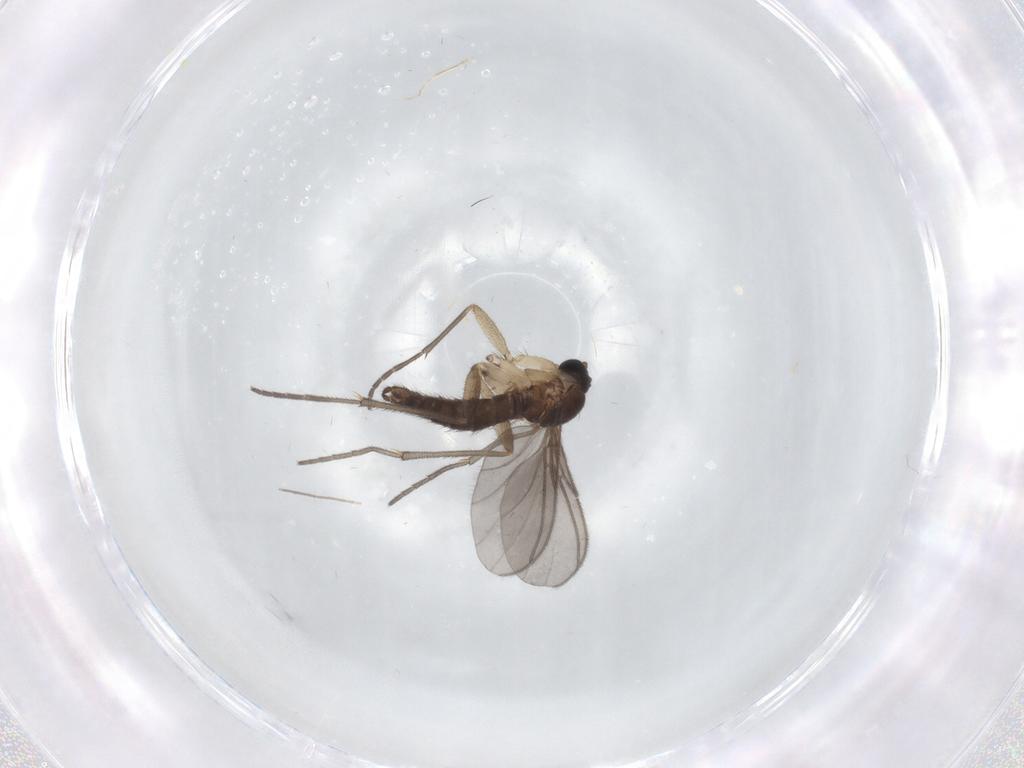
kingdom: Animalia
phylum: Arthropoda
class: Insecta
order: Diptera
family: Sciaridae
